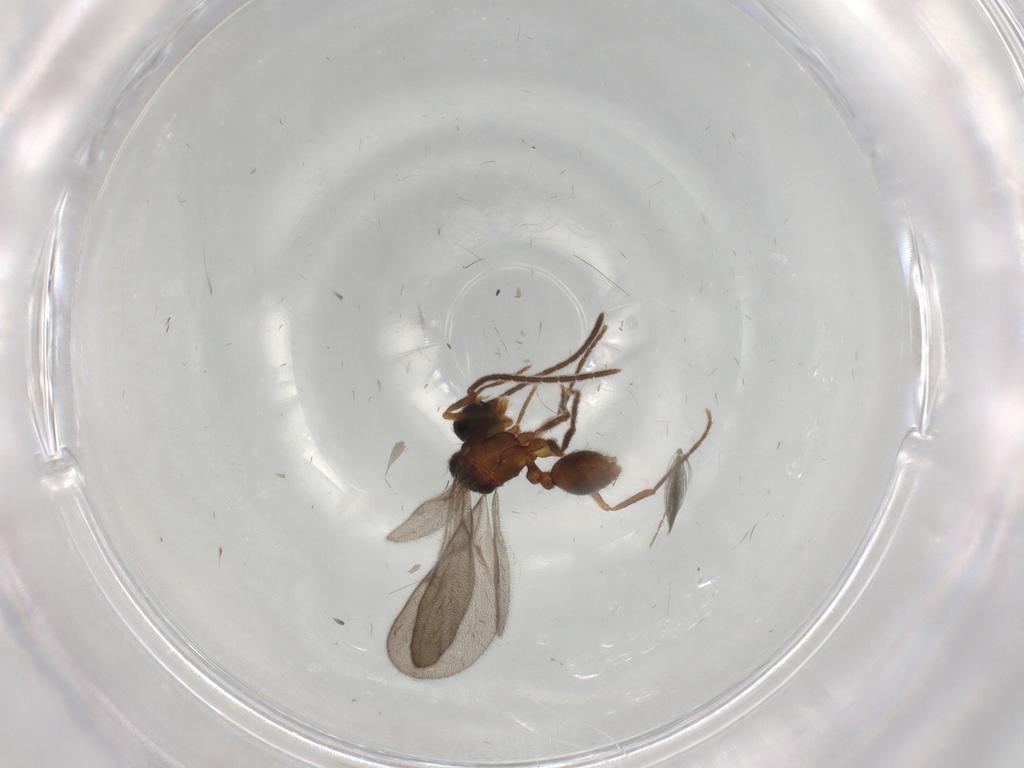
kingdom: Animalia
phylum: Arthropoda
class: Insecta
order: Hymenoptera
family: Formicidae
